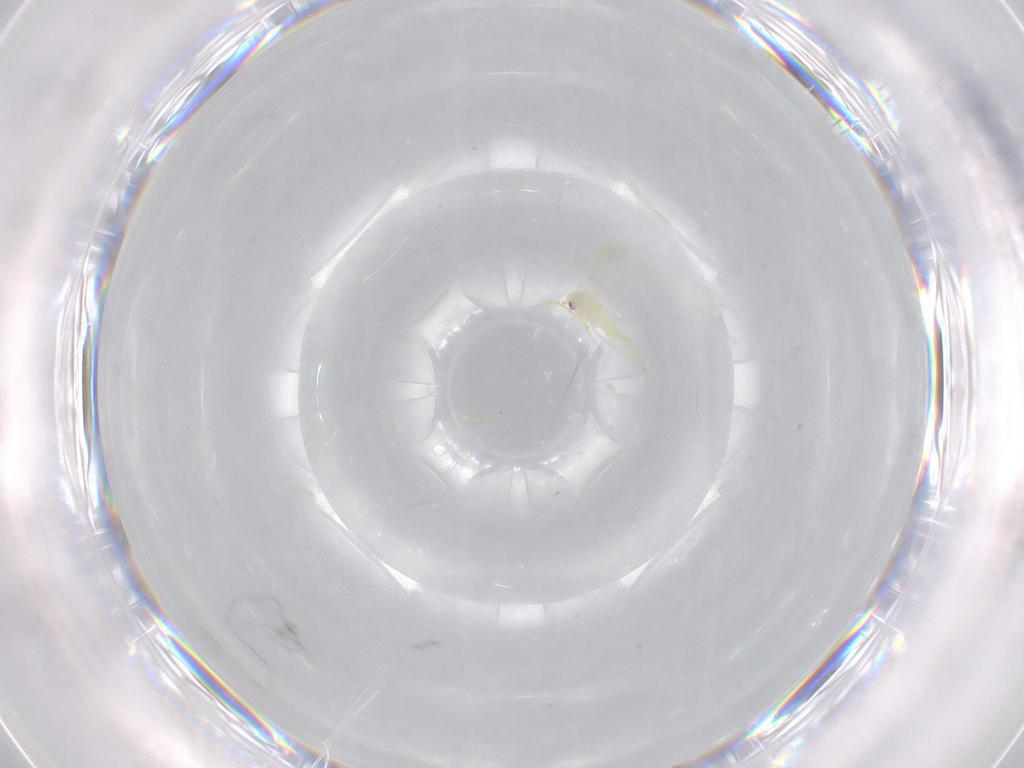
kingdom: Animalia
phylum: Arthropoda
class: Insecta
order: Hemiptera
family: Aleyrodidae
